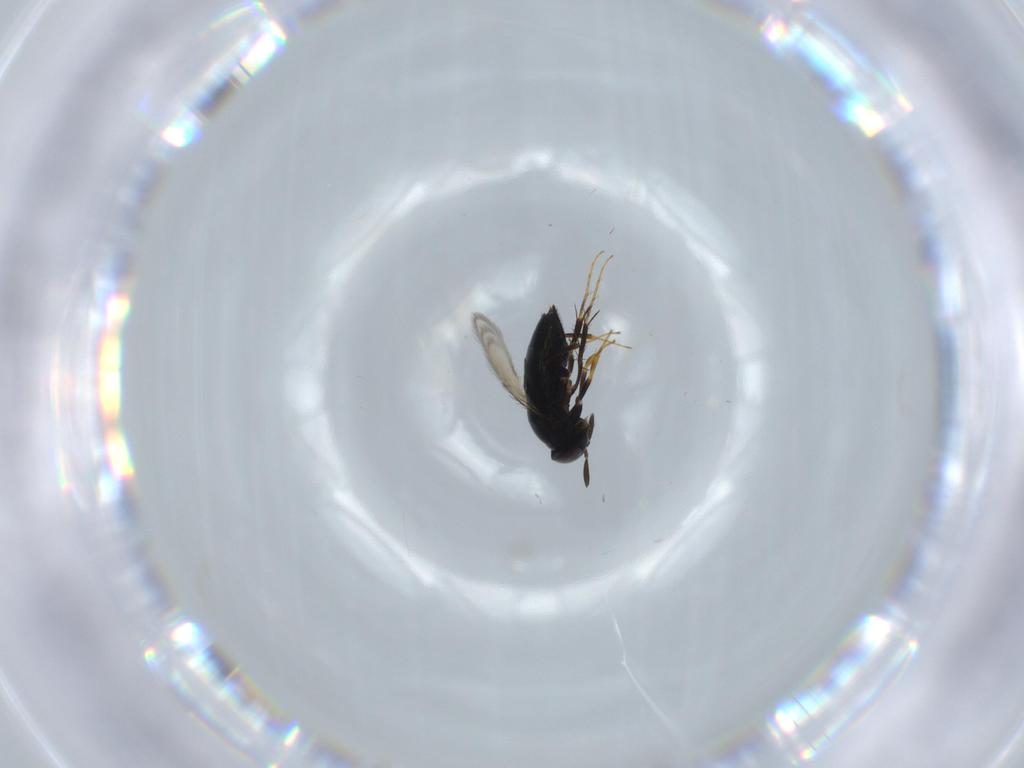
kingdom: Animalia
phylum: Arthropoda
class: Insecta
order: Hymenoptera
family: Signiphoridae
